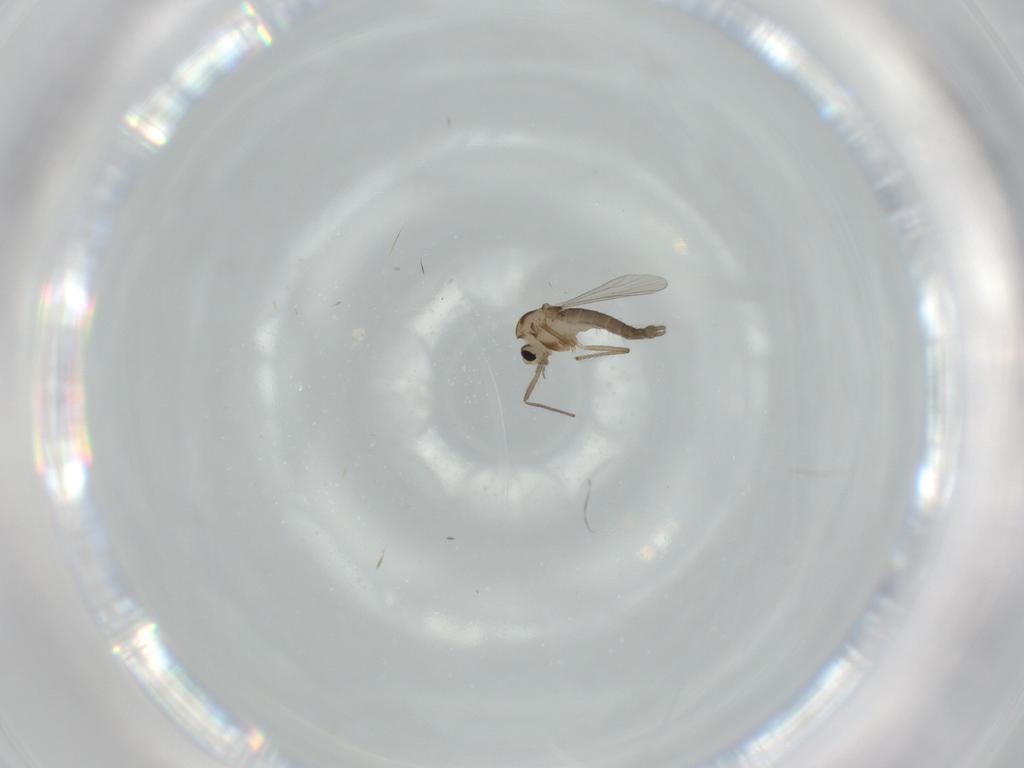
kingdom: Animalia
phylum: Arthropoda
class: Insecta
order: Diptera
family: Chironomidae
